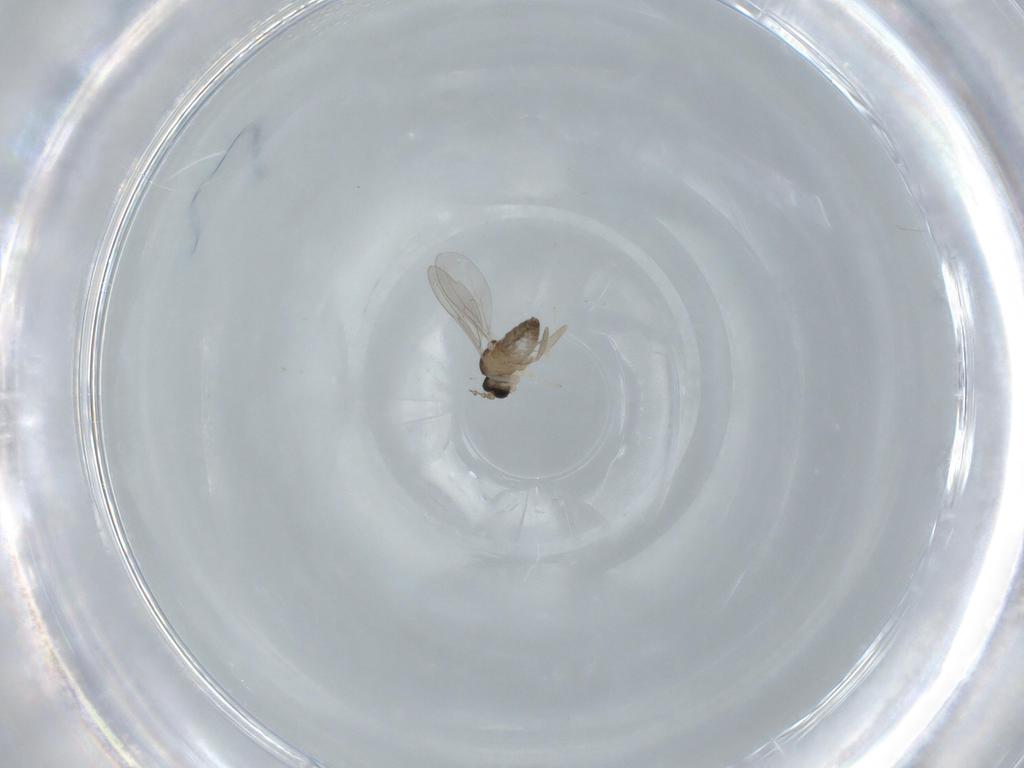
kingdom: Animalia
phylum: Arthropoda
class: Insecta
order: Diptera
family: Cecidomyiidae
